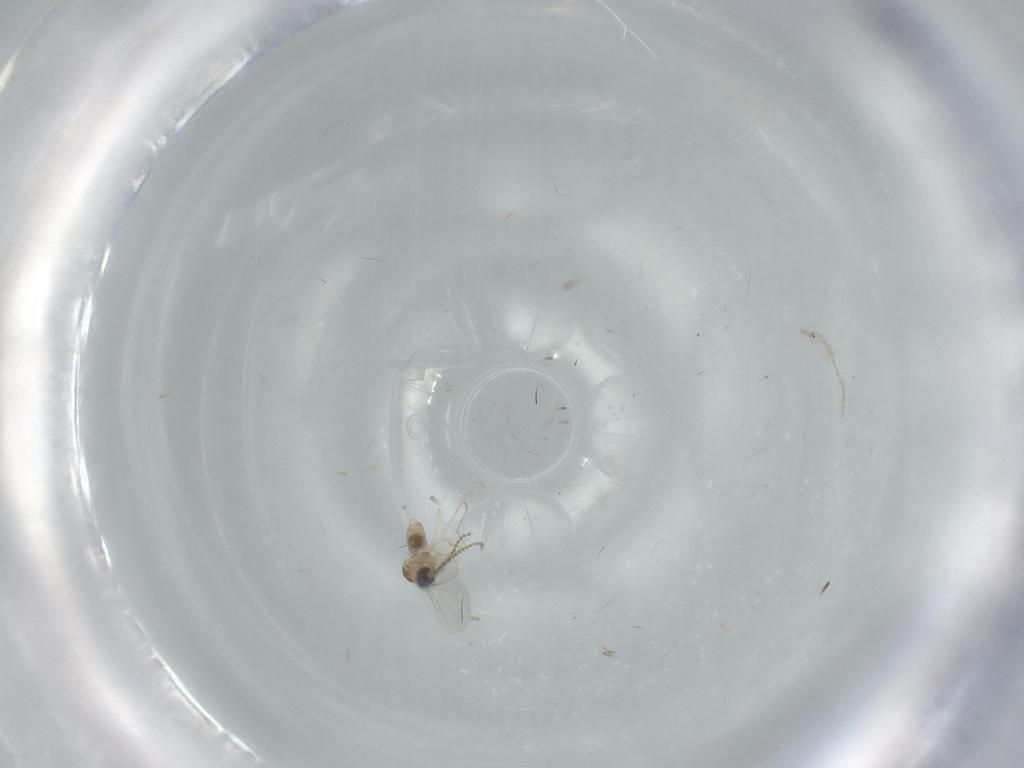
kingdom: Animalia
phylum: Arthropoda
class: Insecta
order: Diptera
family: Cecidomyiidae
